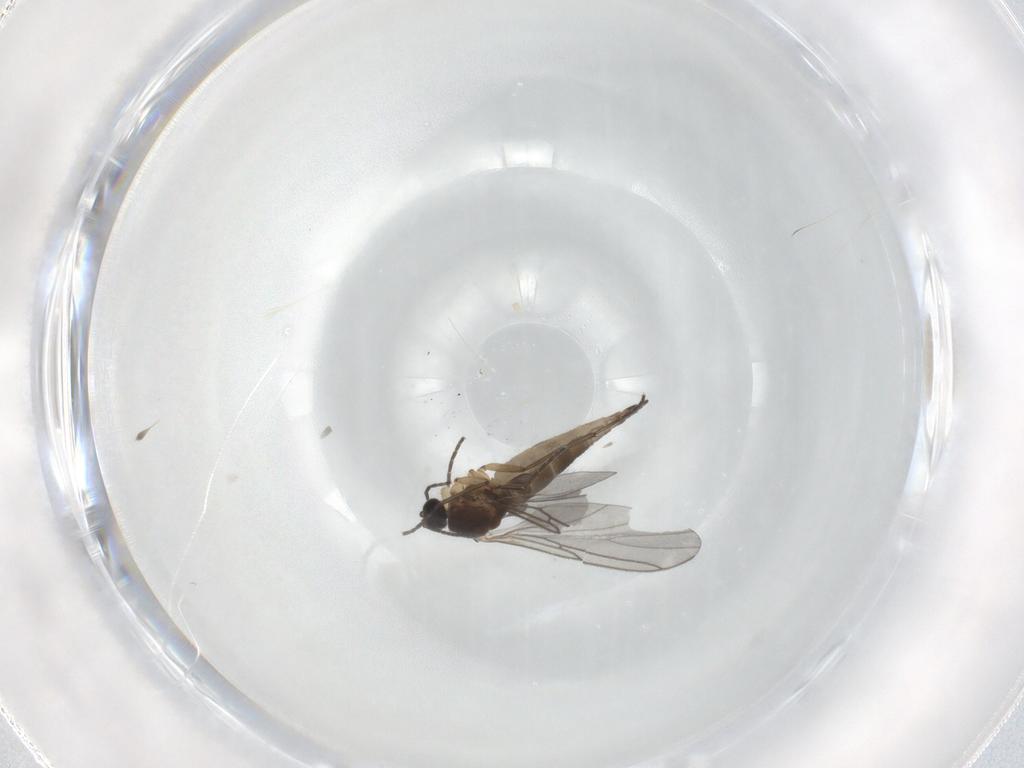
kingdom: Animalia
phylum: Arthropoda
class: Insecta
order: Diptera
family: Sciaridae
